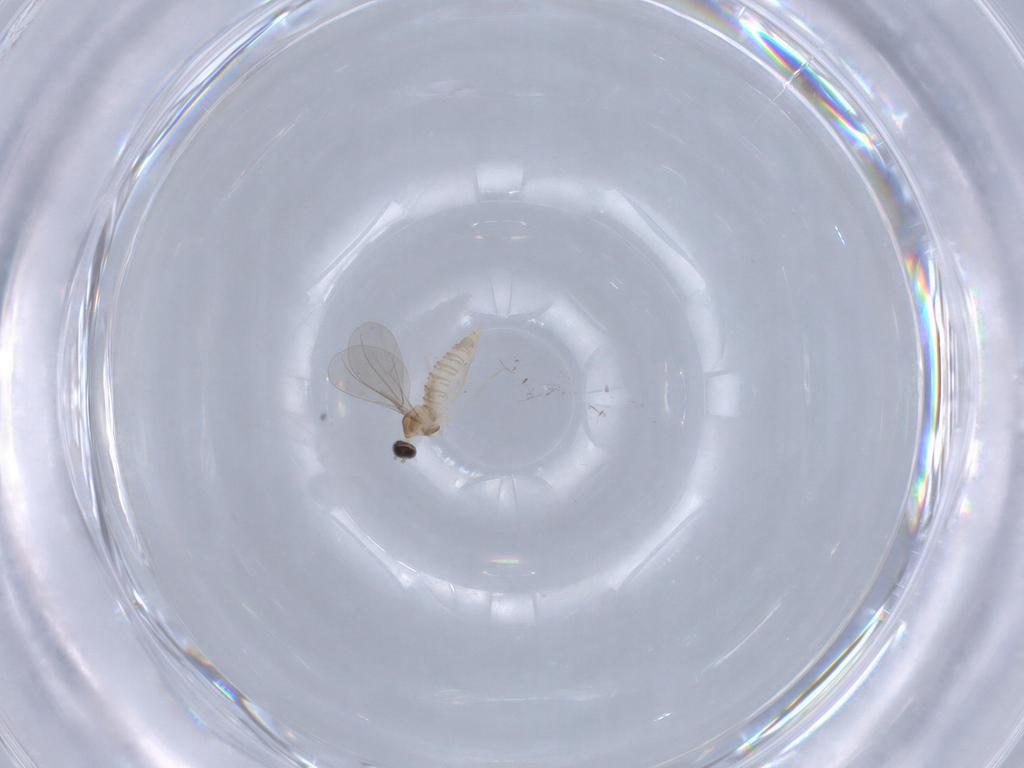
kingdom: Animalia
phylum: Arthropoda
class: Insecta
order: Diptera
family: Cecidomyiidae
